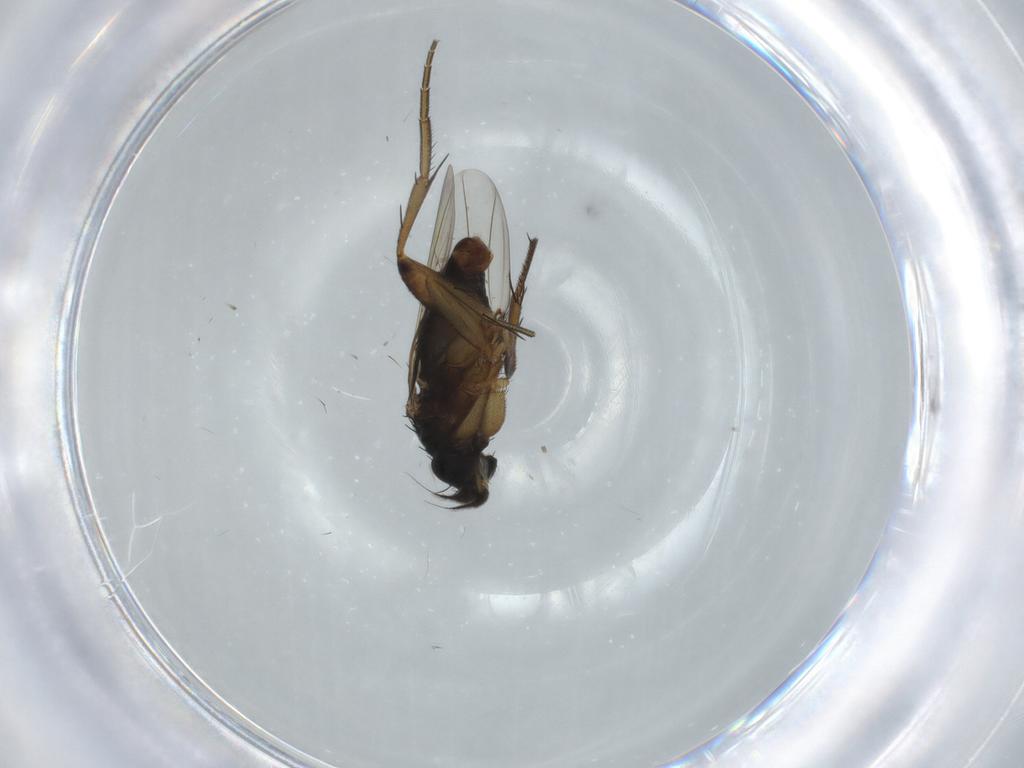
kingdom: Animalia
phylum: Arthropoda
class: Insecta
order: Diptera
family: Phoridae
